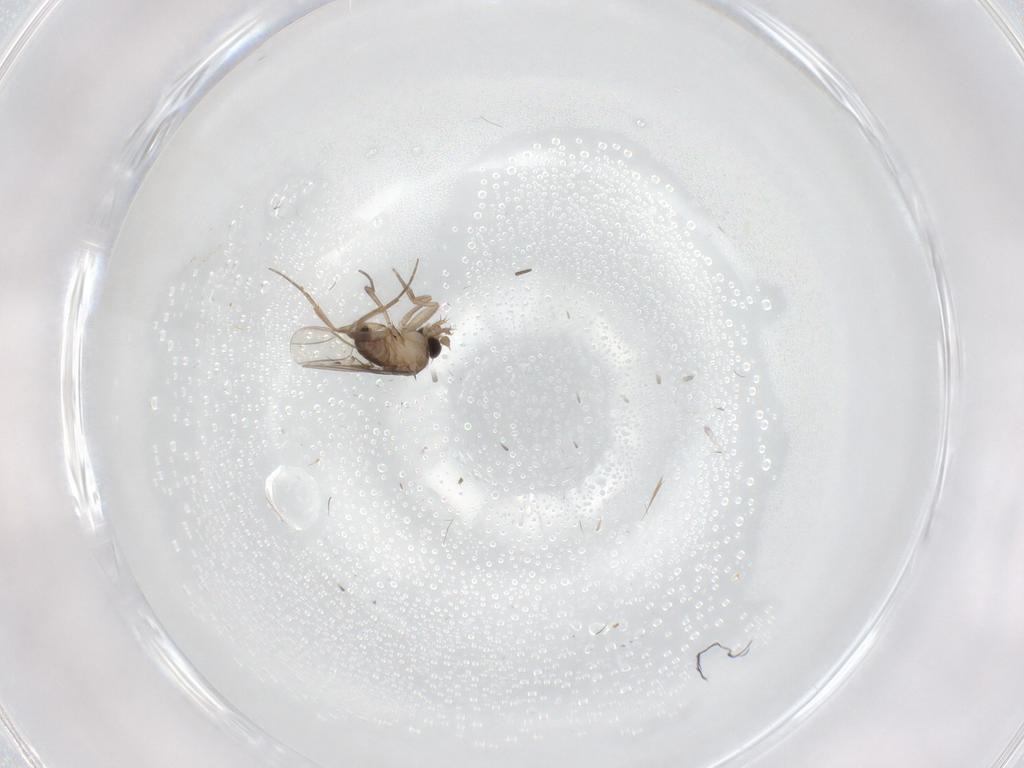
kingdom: Animalia
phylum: Arthropoda
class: Insecta
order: Diptera
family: Cecidomyiidae
